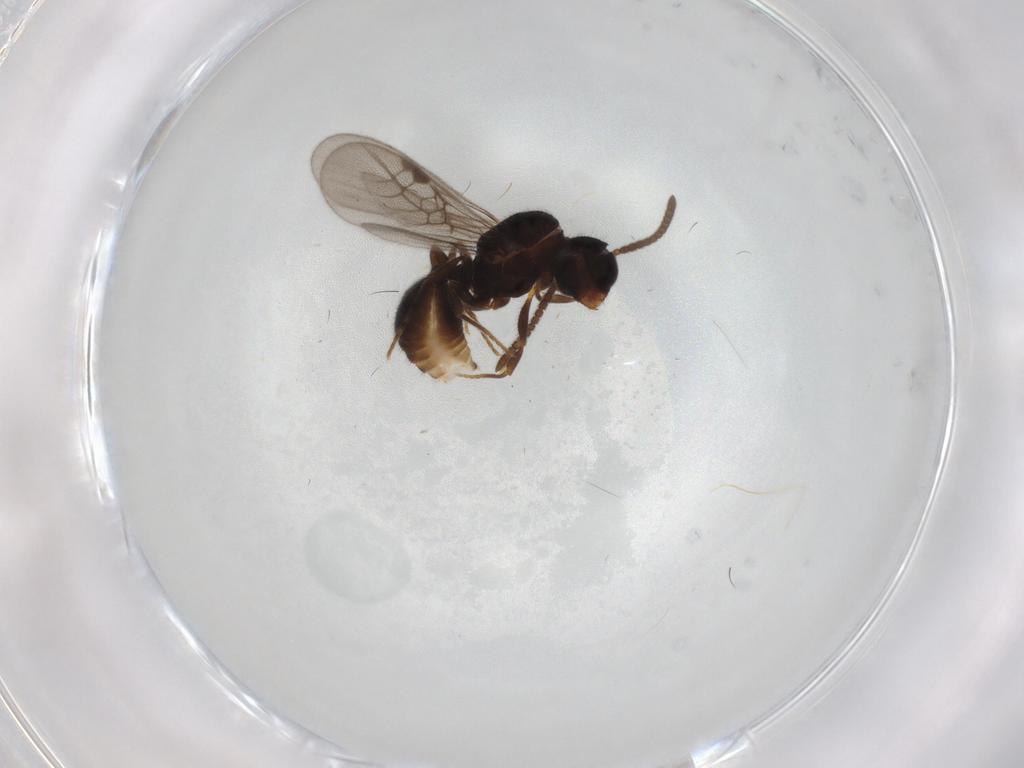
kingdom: Animalia
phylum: Arthropoda
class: Insecta
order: Hymenoptera
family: Formicidae
